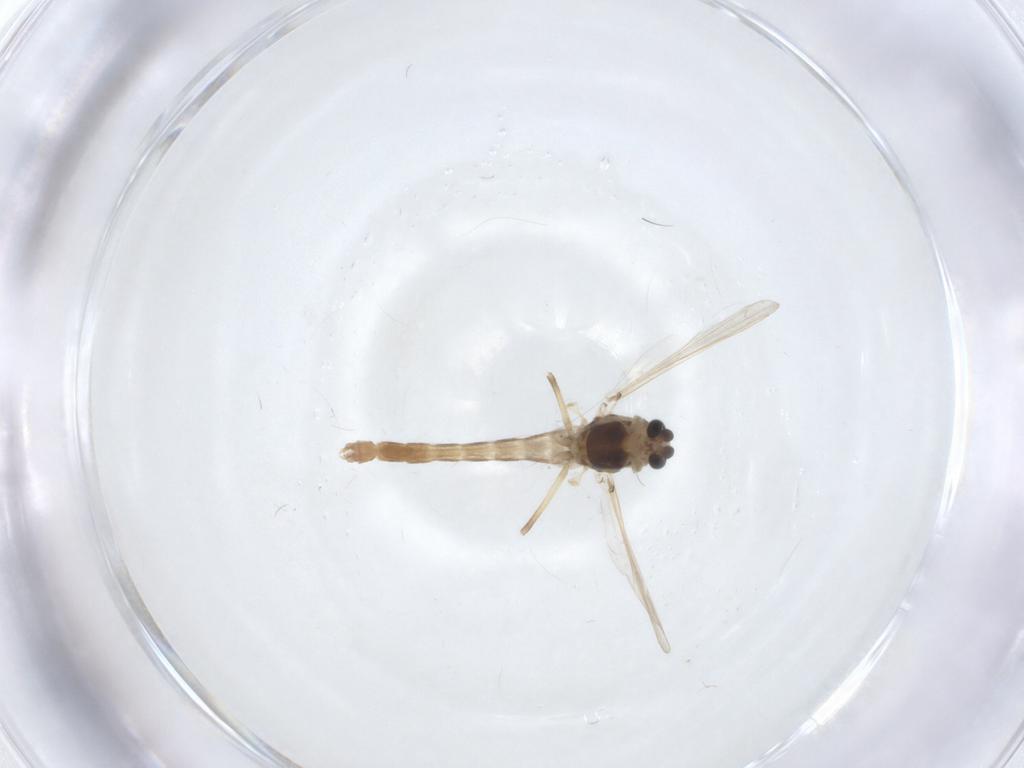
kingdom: Animalia
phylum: Arthropoda
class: Insecta
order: Diptera
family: Chironomidae
